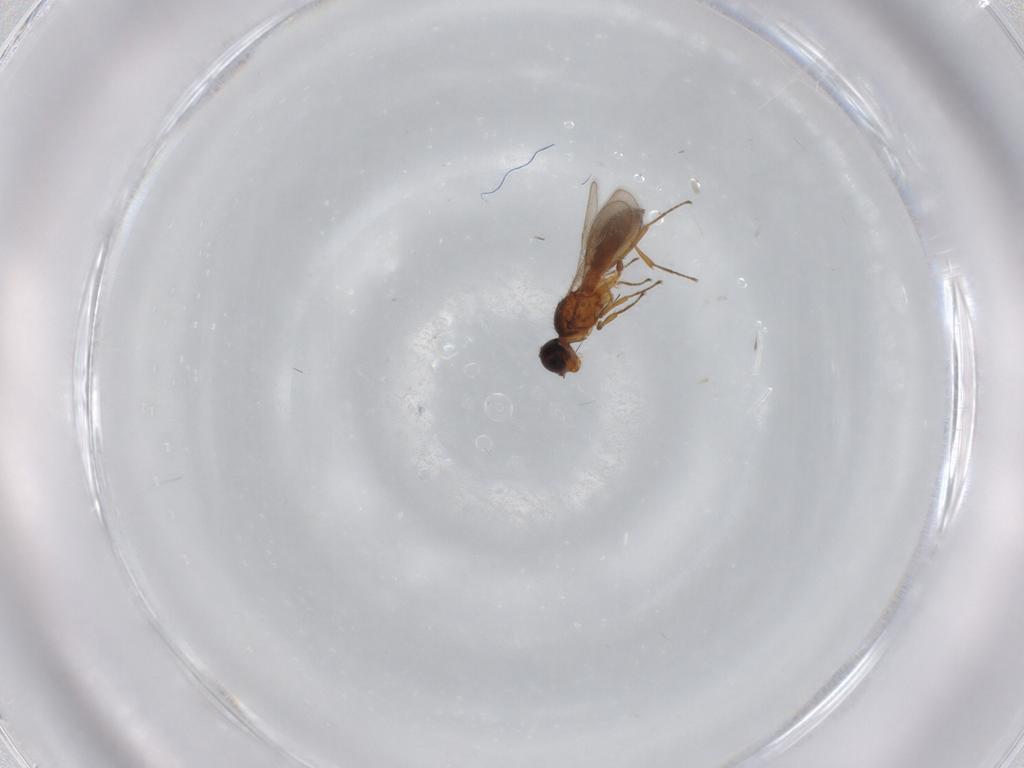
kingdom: Animalia
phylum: Arthropoda
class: Insecta
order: Hymenoptera
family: Scelionidae
